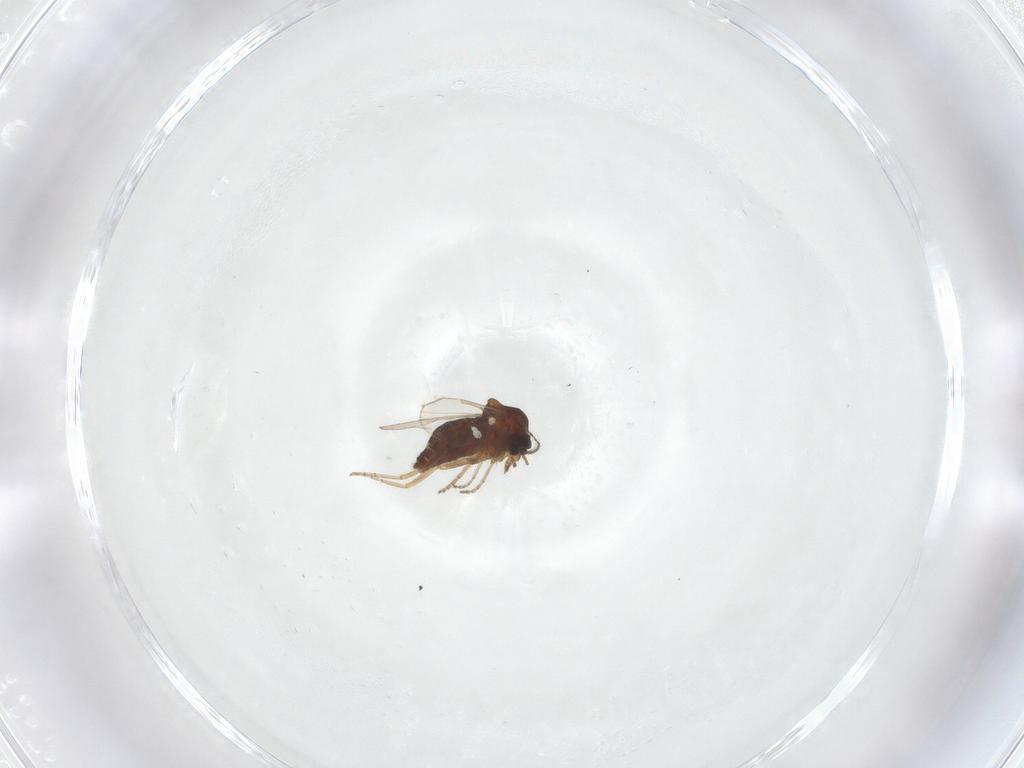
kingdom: Animalia
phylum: Arthropoda
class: Insecta
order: Diptera
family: Ceratopogonidae
